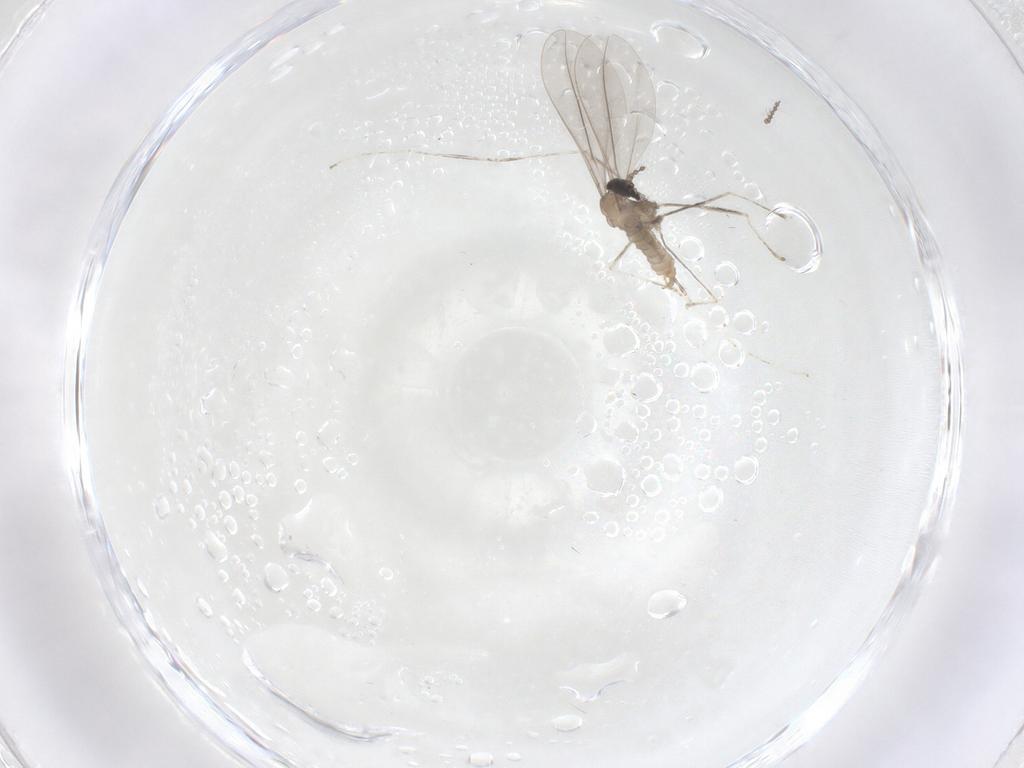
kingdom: Animalia
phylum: Arthropoda
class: Insecta
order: Diptera
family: Cecidomyiidae
